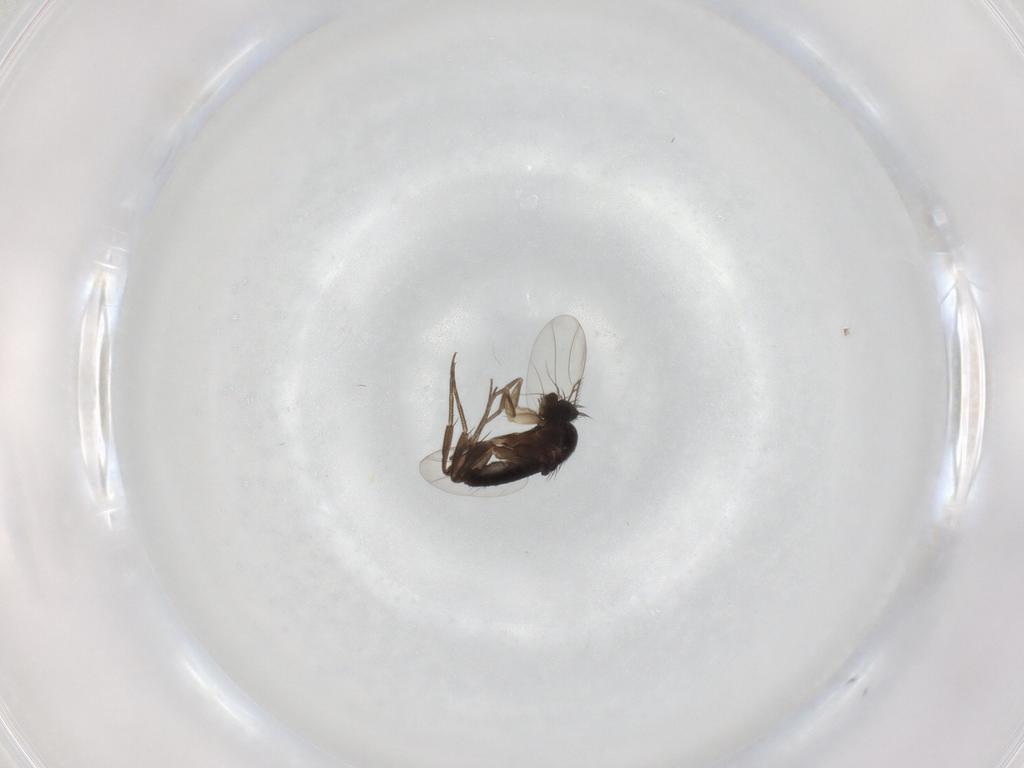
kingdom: Animalia
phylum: Arthropoda
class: Insecta
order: Diptera
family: Phoridae
